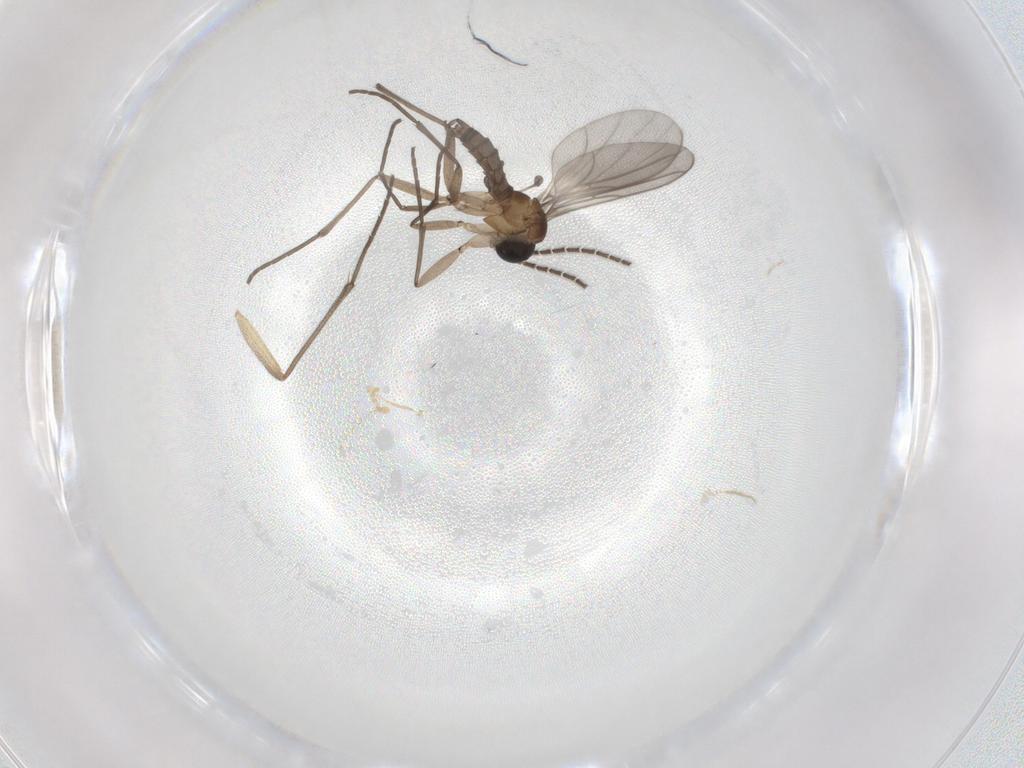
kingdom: Animalia
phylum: Arthropoda
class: Insecta
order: Diptera
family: Sciaridae
